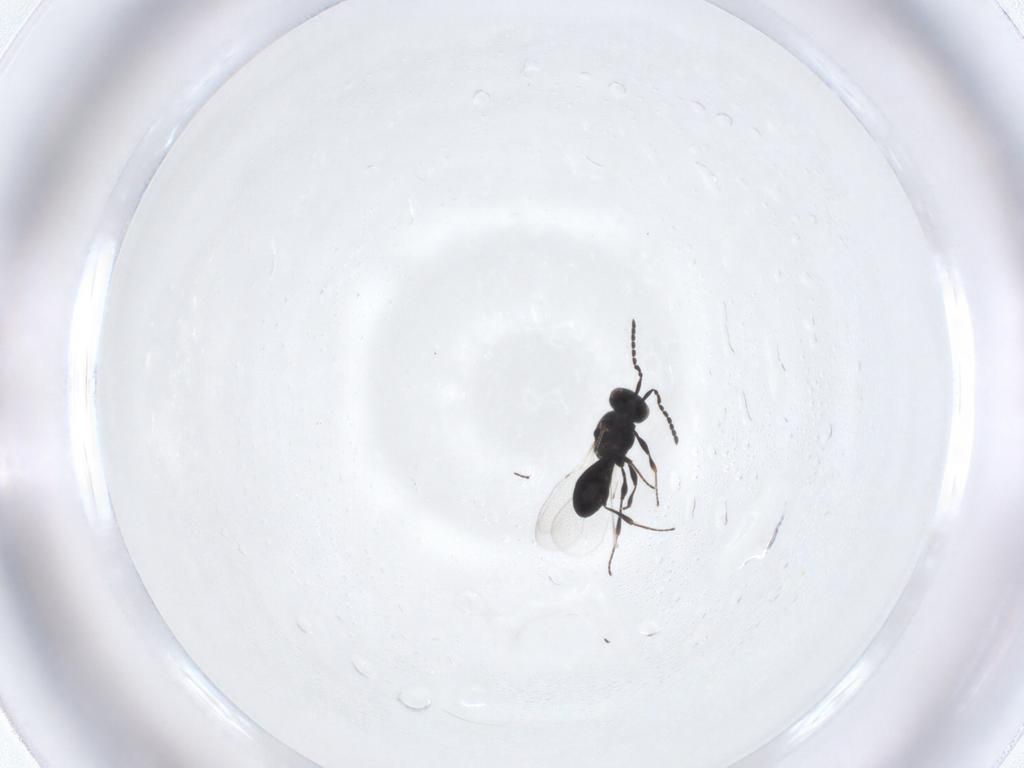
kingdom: Animalia
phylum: Arthropoda
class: Insecta
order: Hymenoptera
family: Platygastridae
